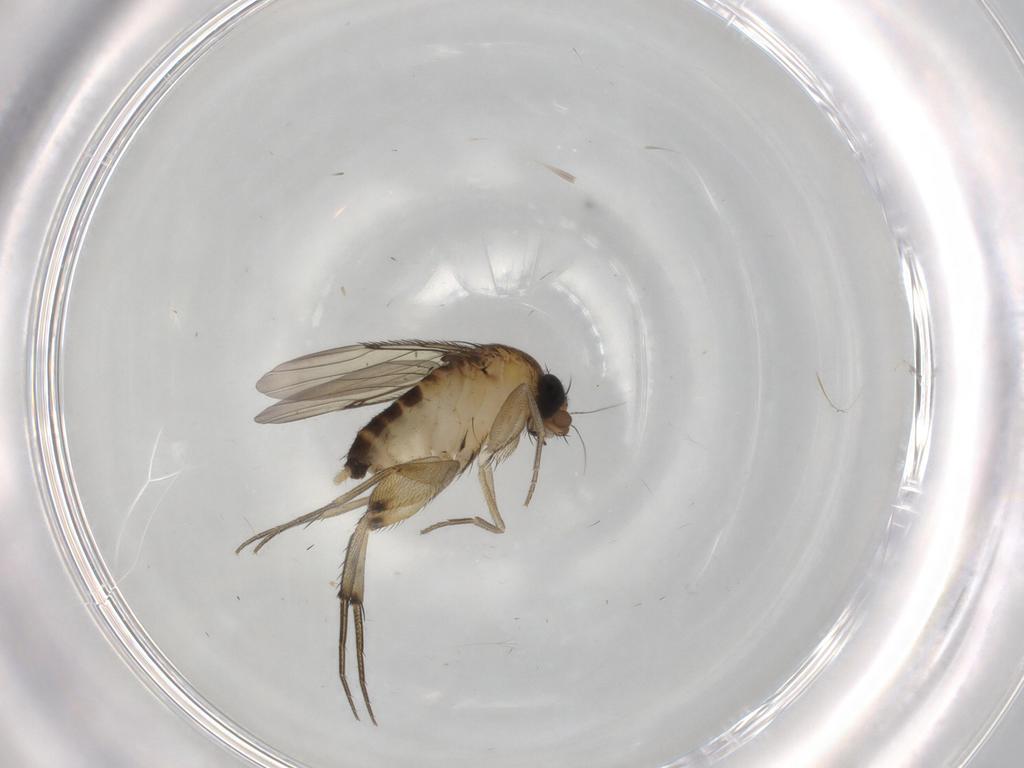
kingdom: Animalia
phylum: Arthropoda
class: Insecta
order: Diptera
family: Phoridae
